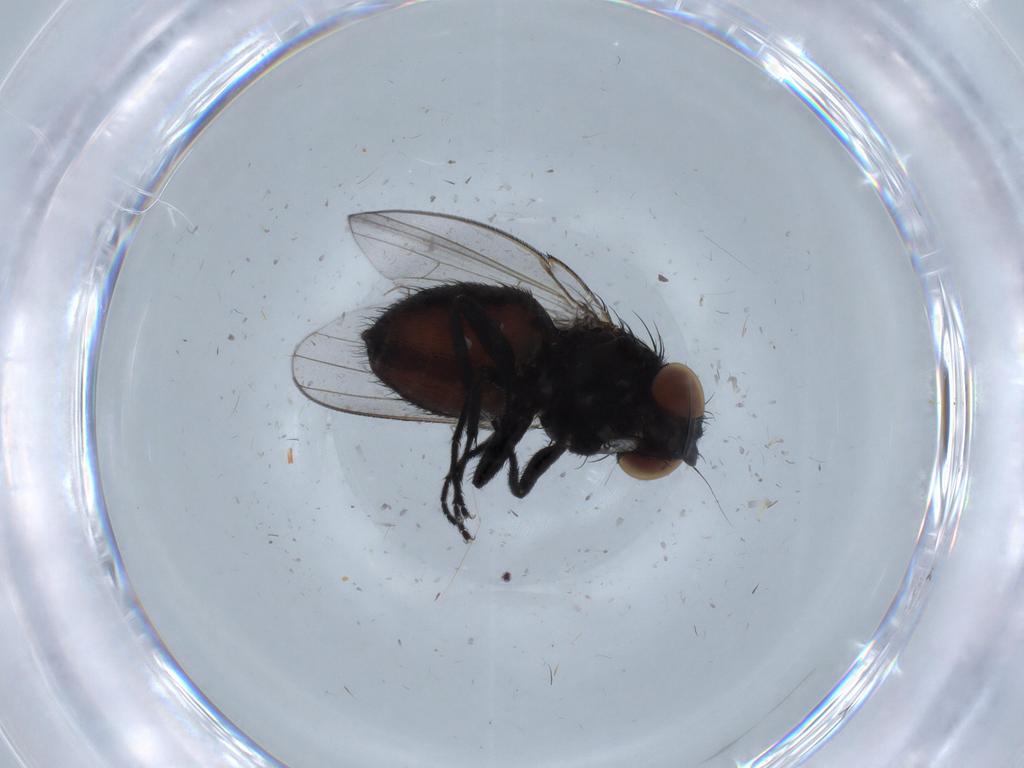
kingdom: Animalia
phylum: Arthropoda
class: Insecta
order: Diptera
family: Milichiidae
